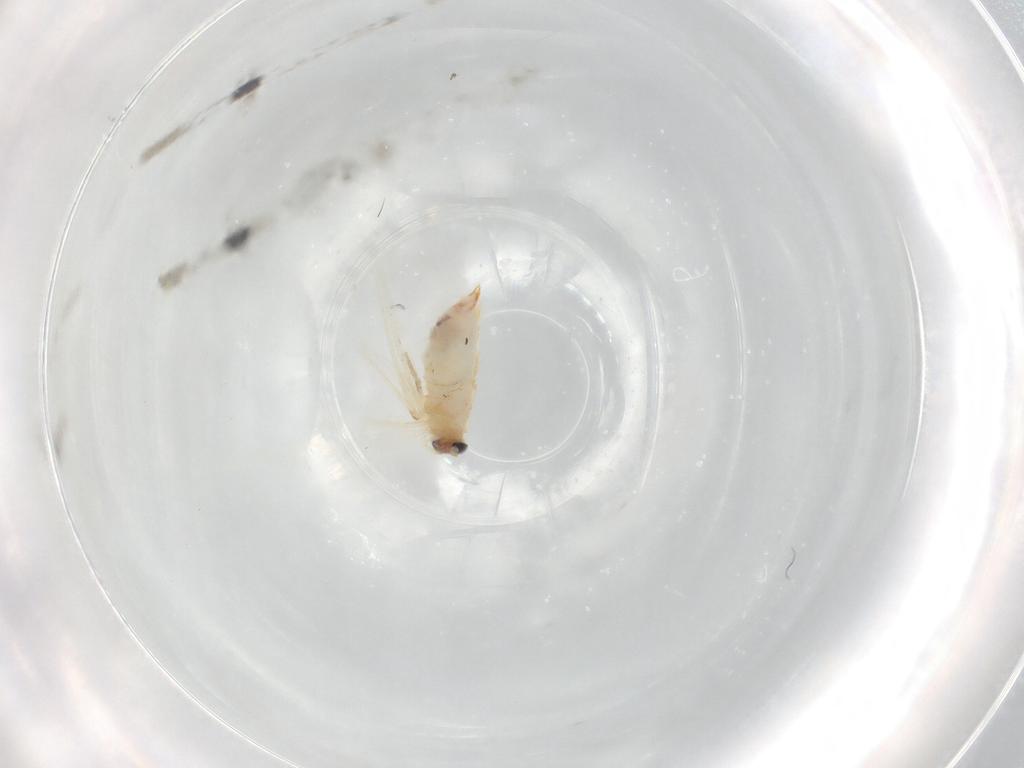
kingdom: Animalia
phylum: Arthropoda
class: Insecta
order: Lepidoptera
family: Nepticulidae
